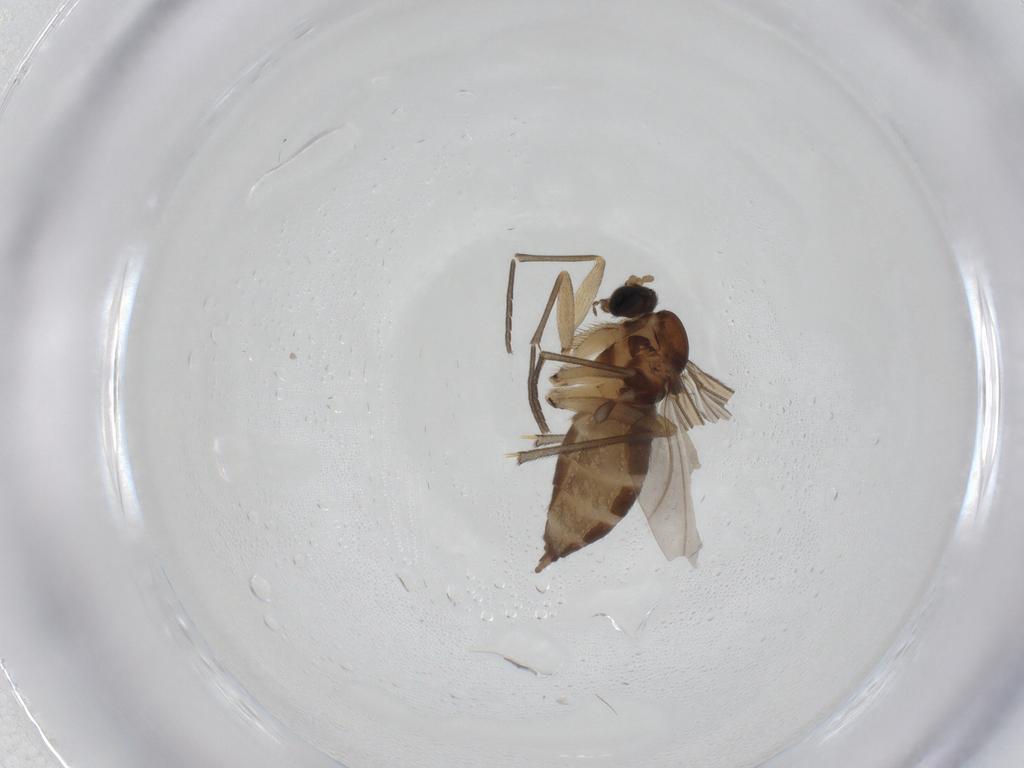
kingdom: Animalia
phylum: Arthropoda
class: Insecta
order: Diptera
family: Sciaridae
